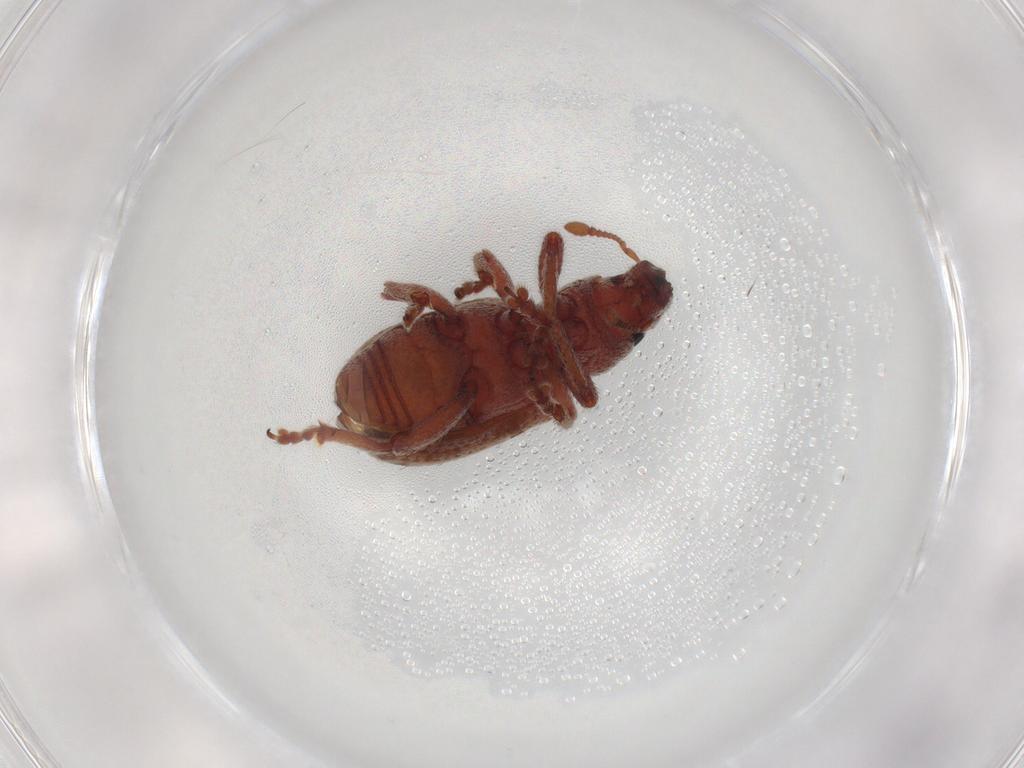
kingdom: Animalia
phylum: Arthropoda
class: Insecta
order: Coleoptera
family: Curculionidae
